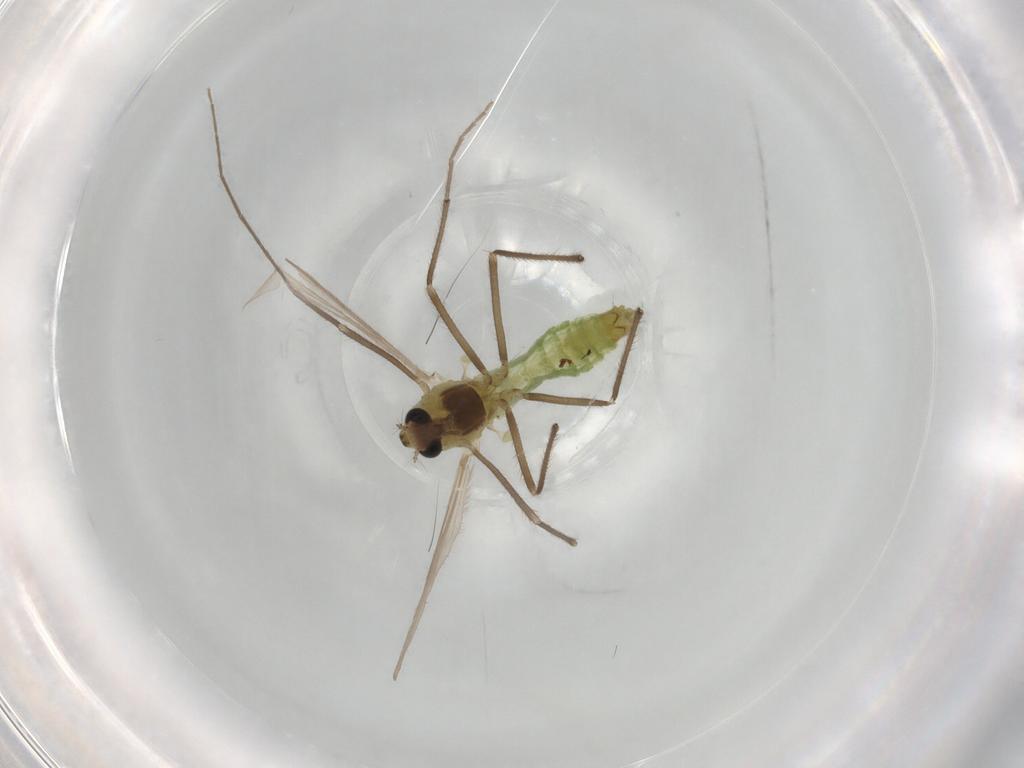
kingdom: Animalia
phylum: Arthropoda
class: Insecta
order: Diptera
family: Chironomidae
